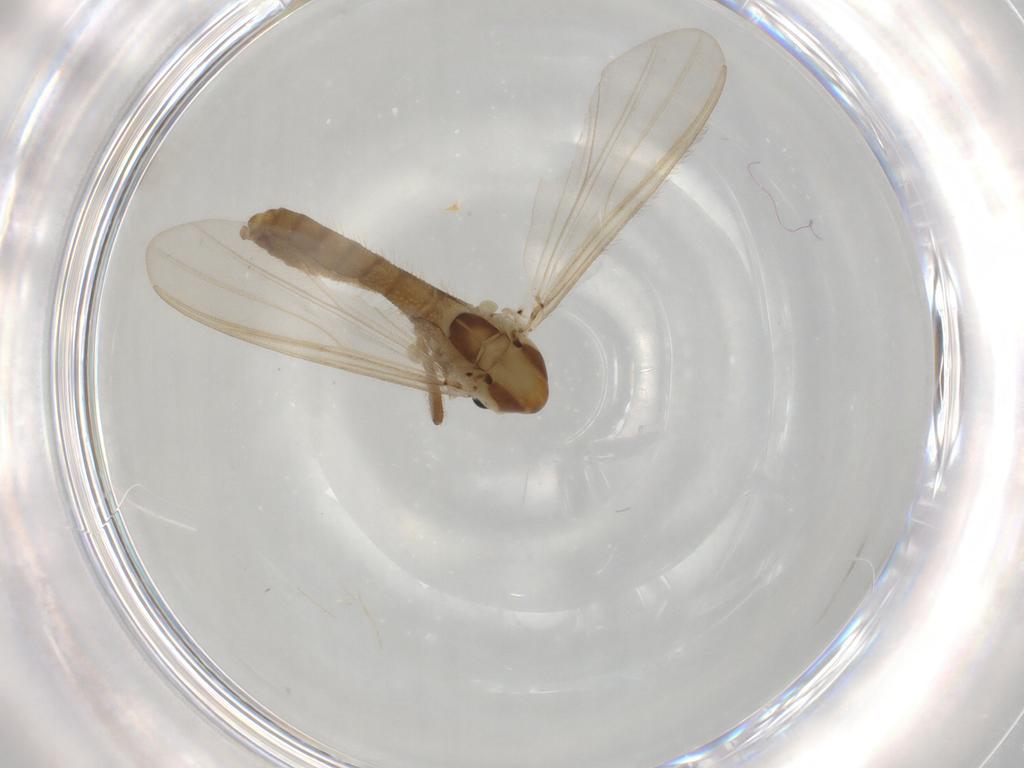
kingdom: Animalia
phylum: Arthropoda
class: Insecta
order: Diptera
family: Sciaridae
